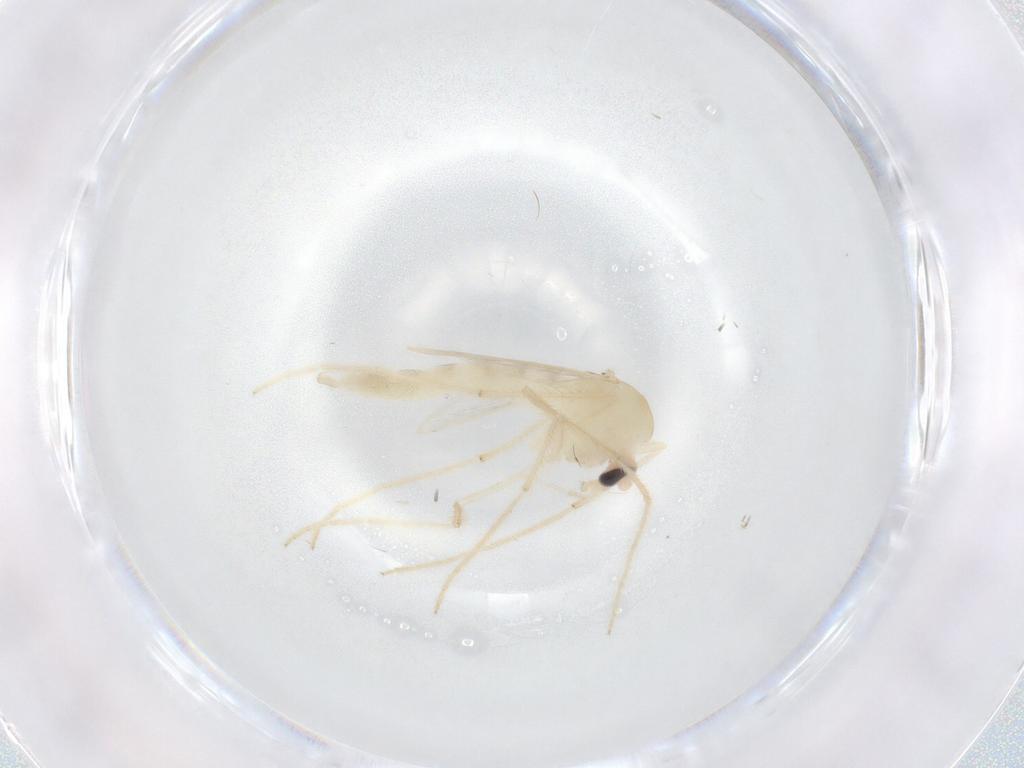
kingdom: Animalia
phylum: Arthropoda
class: Insecta
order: Diptera
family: Chironomidae
